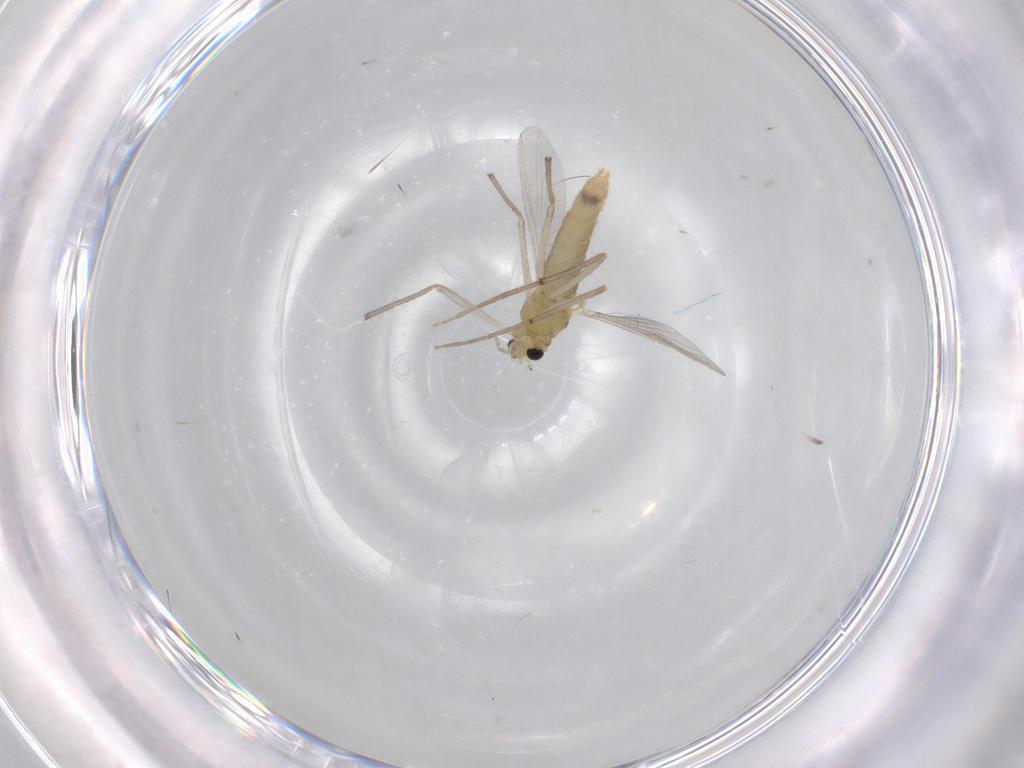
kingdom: Animalia
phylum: Arthropoda
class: Insecta
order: Diptera
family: Chironomidae
